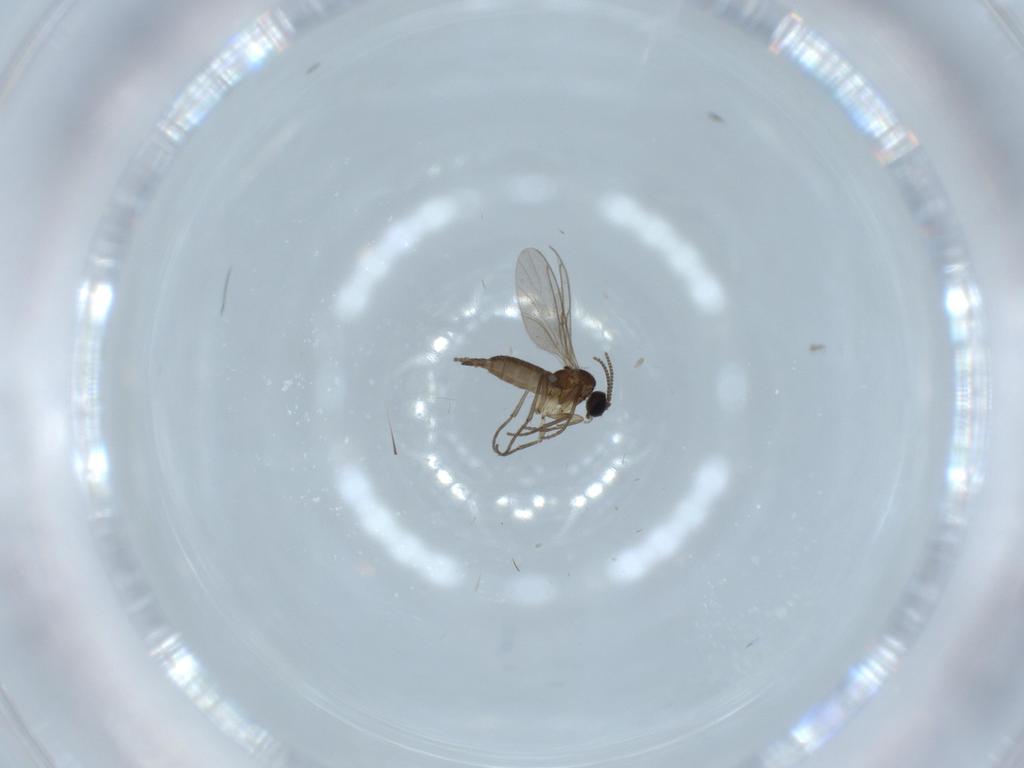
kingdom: Animalia
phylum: Arthropoda
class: Insecta
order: Diptera
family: Sciaridae
